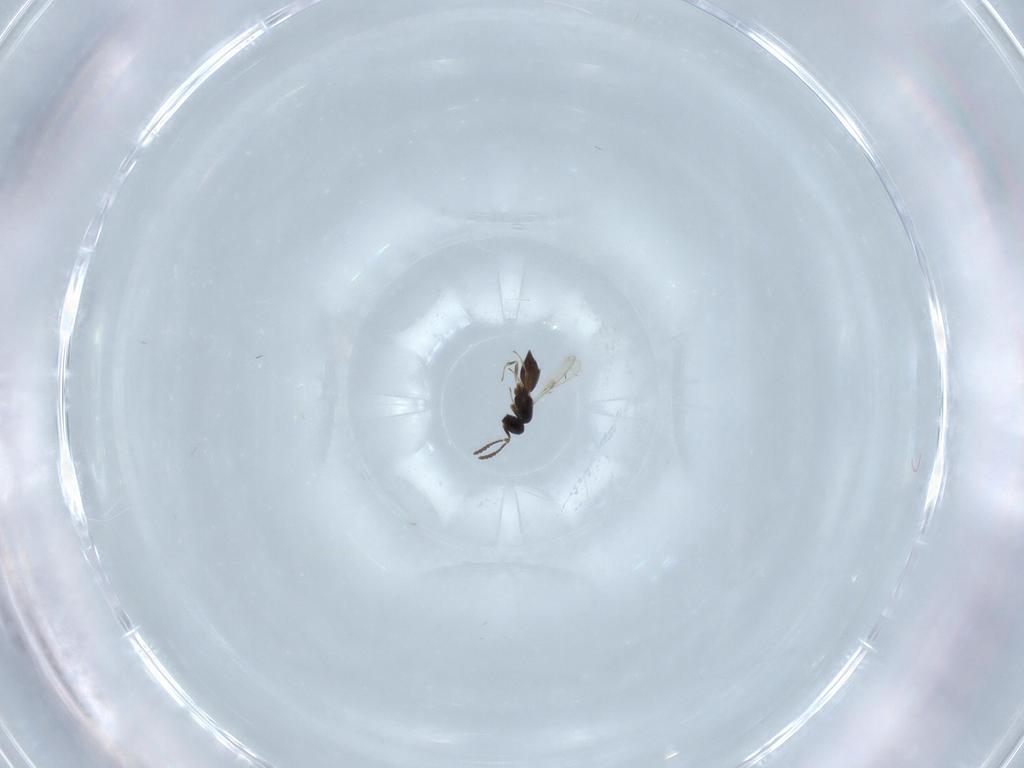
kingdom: Animalia
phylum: Arthropoda
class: Insecta
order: Hymenoptera
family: Scelionidae
